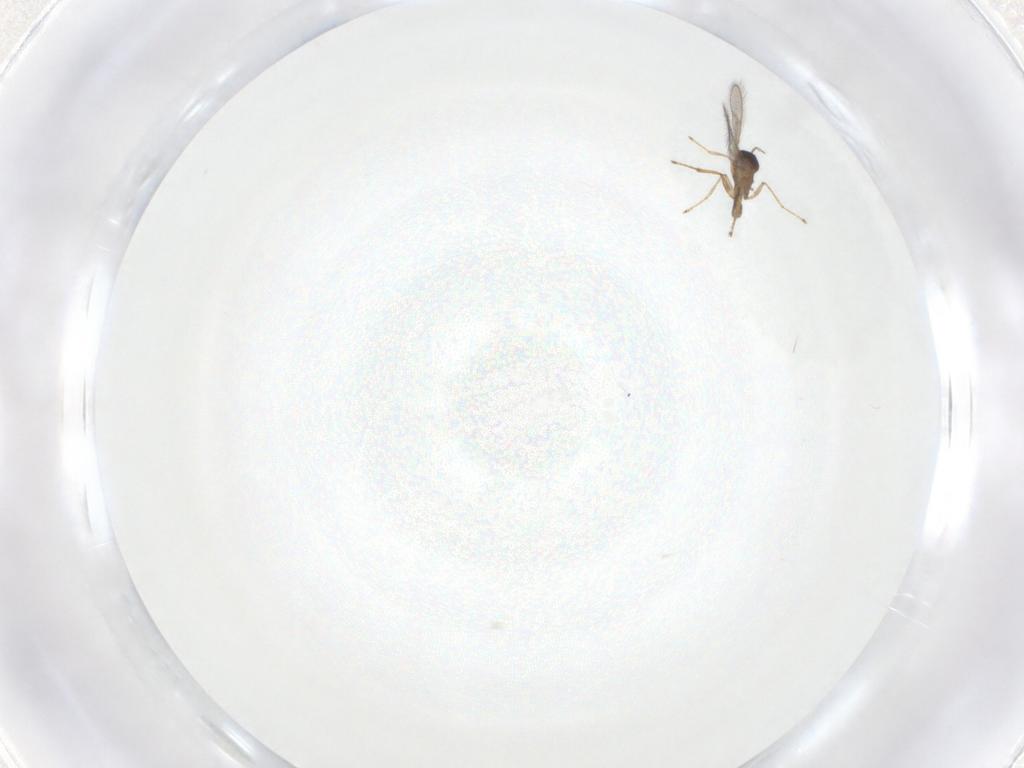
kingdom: Animalia
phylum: Arthropoda
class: Insecta
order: Hymenoptera
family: Mymaridae
